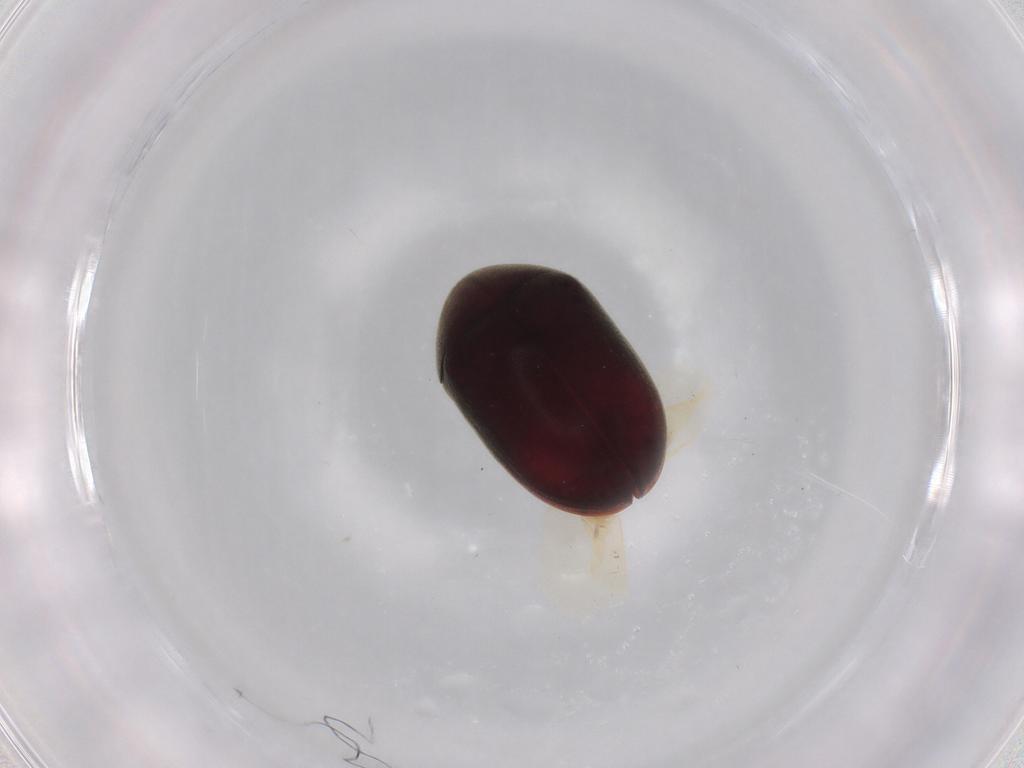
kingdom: Animalia
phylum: Arthropoda
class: Insecta
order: Coleoptera
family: Ptinidae
